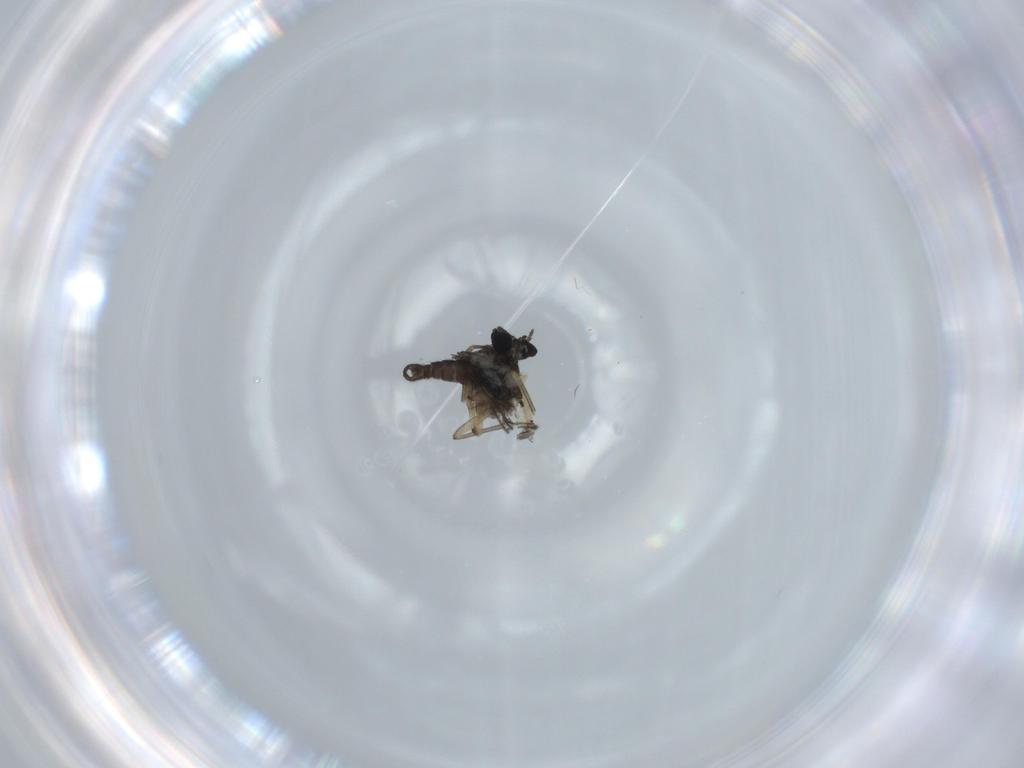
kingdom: Animalia
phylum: Arthropoda
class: Insecta
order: Diptera
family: Sciaridae
